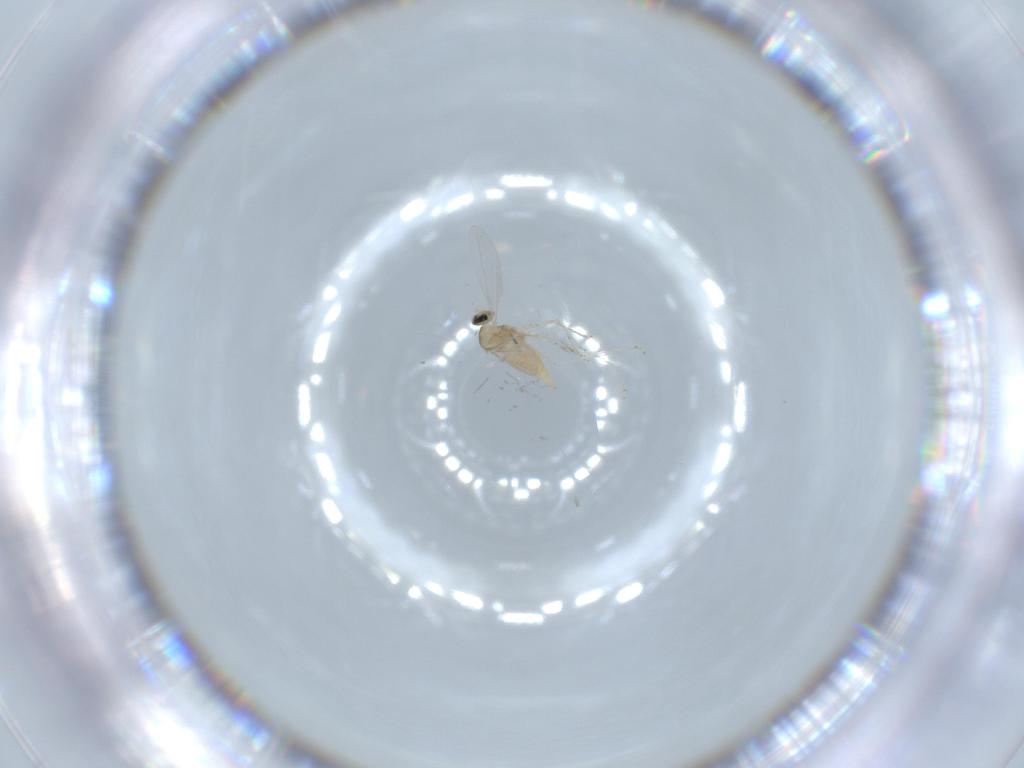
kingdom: Animalia
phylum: Arthropoda
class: Insecta
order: Diptera
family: Cecidomyiidae
